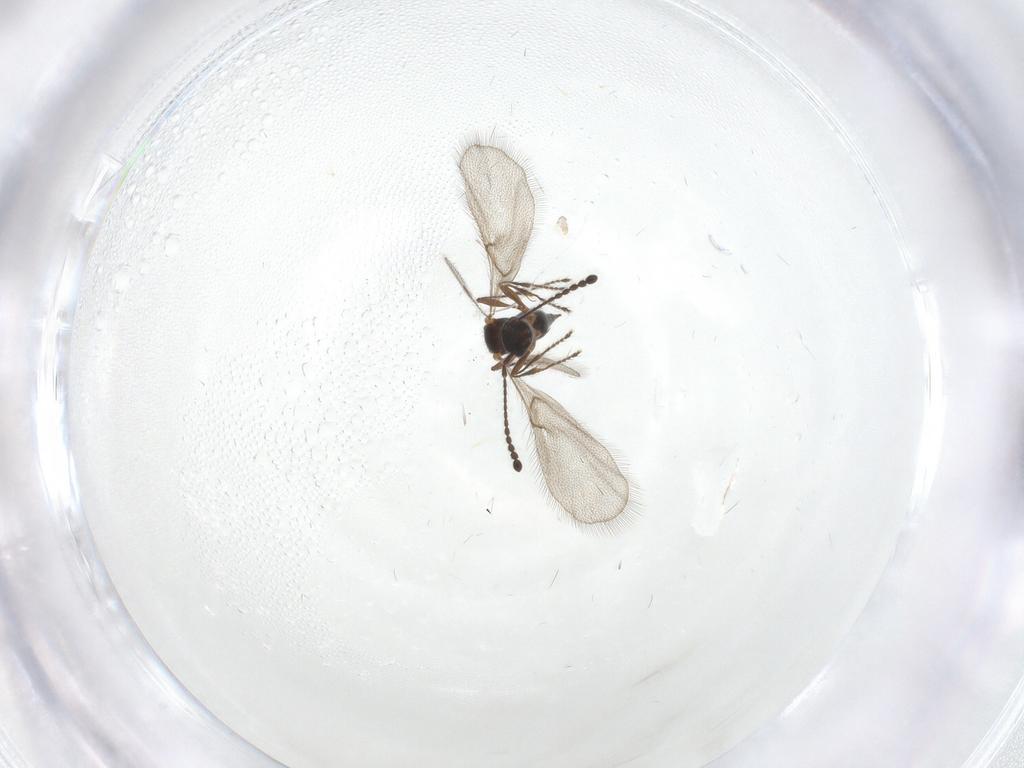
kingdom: Animalia
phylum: Arthropoda
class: Insecta
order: Hymenoptera
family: Diapriidae
